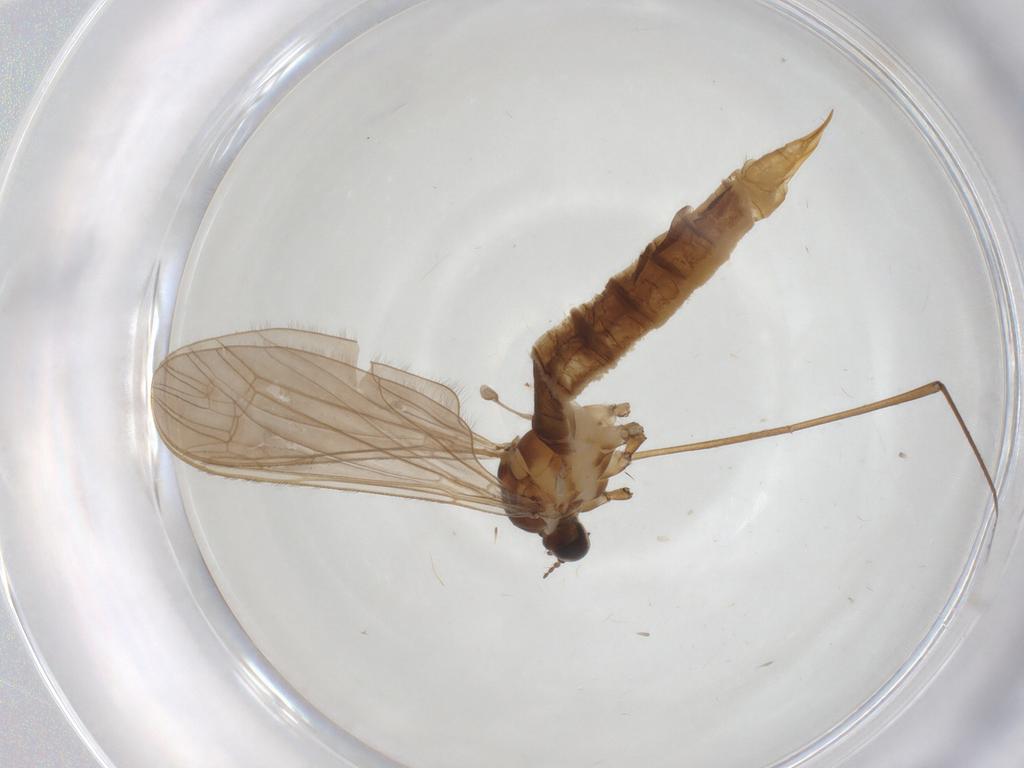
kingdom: Animalia
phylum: Arthropoda
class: Insecta
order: Diptera
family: Limoniidae
